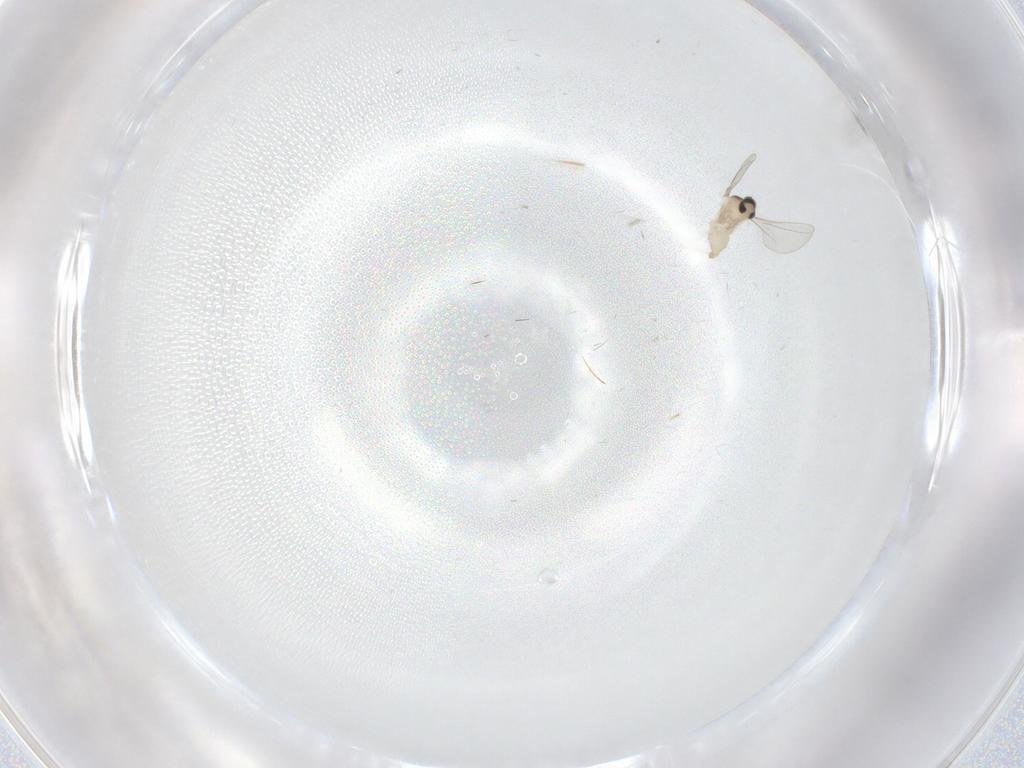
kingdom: Animalia
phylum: Arthropoda
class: Insecta
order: Diptera
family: Cecidomyiidae
